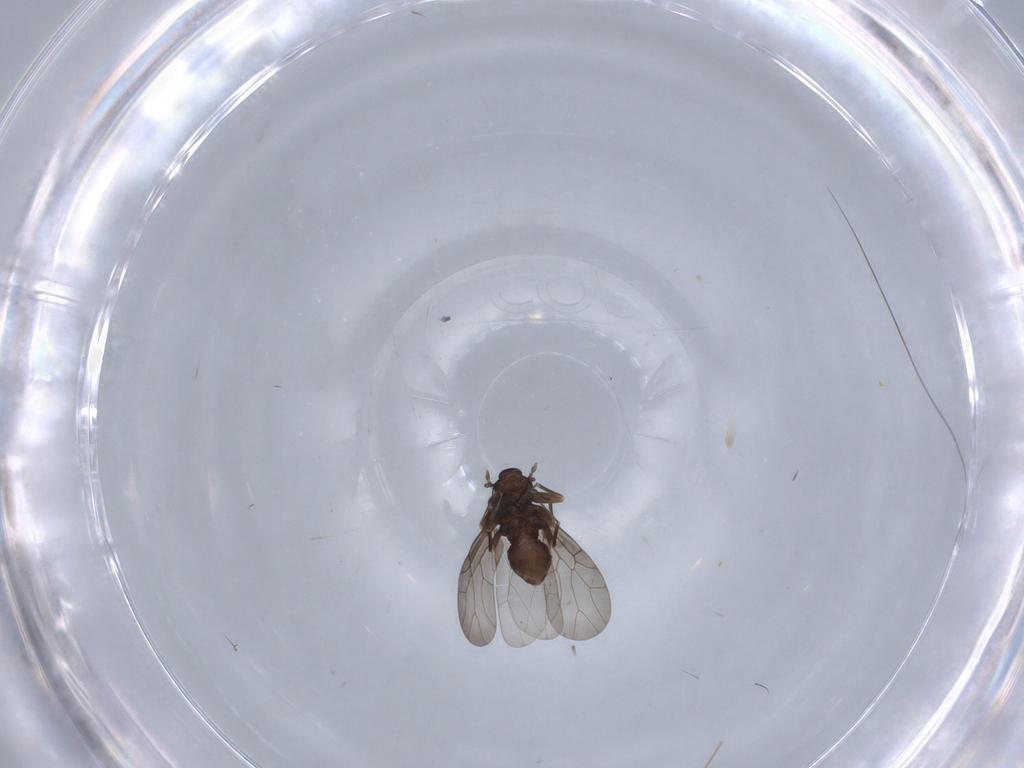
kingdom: Animalia
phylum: Arthropoda
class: Insecta
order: Psocodea
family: Lepidopsocidae
